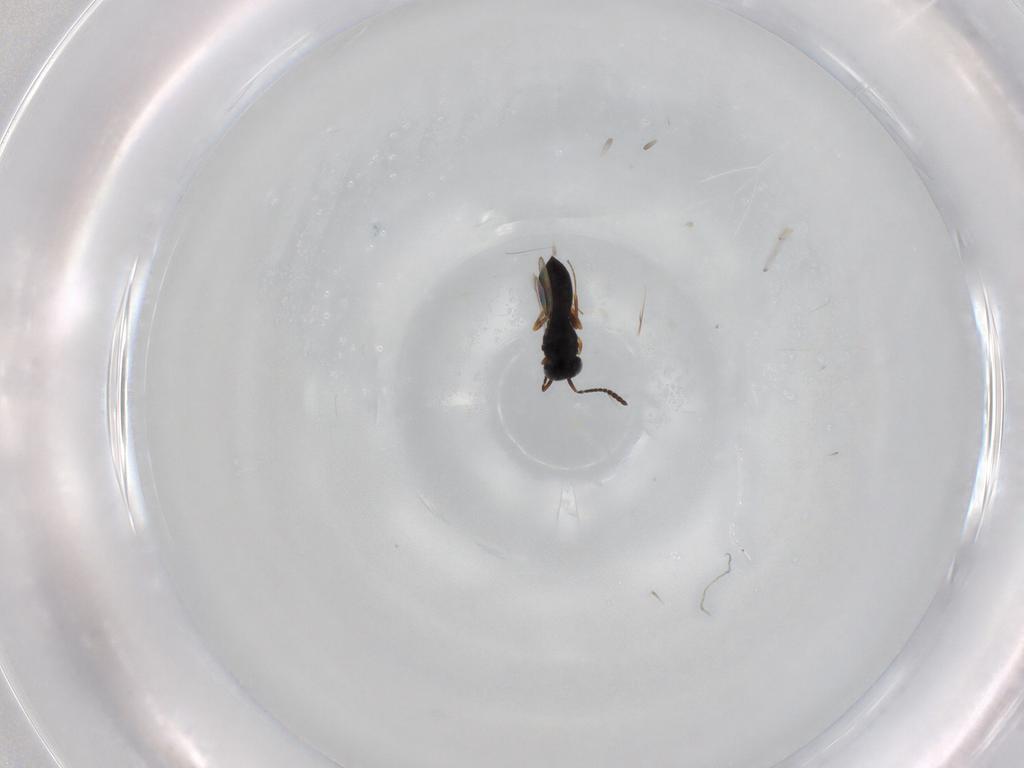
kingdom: Animalia
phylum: Arthropoda
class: Insecta
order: Hymenoptera
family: Scelionidae
